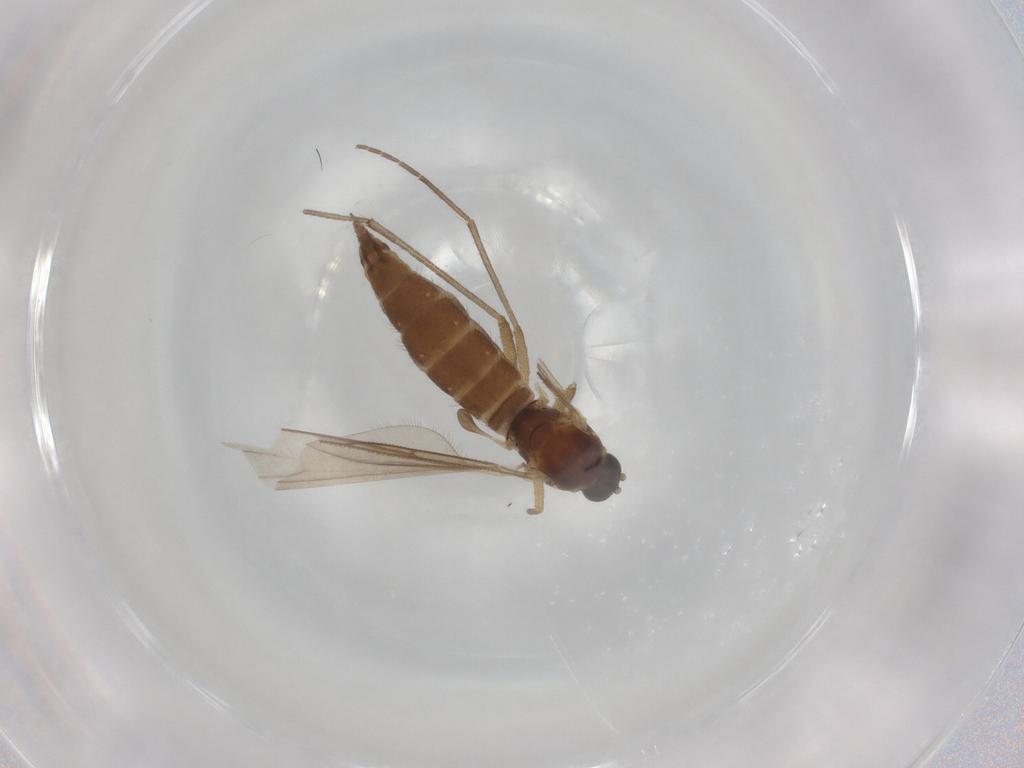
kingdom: Animalia
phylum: Arthropoda
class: Insecta
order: Diptera
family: Sciaridae
